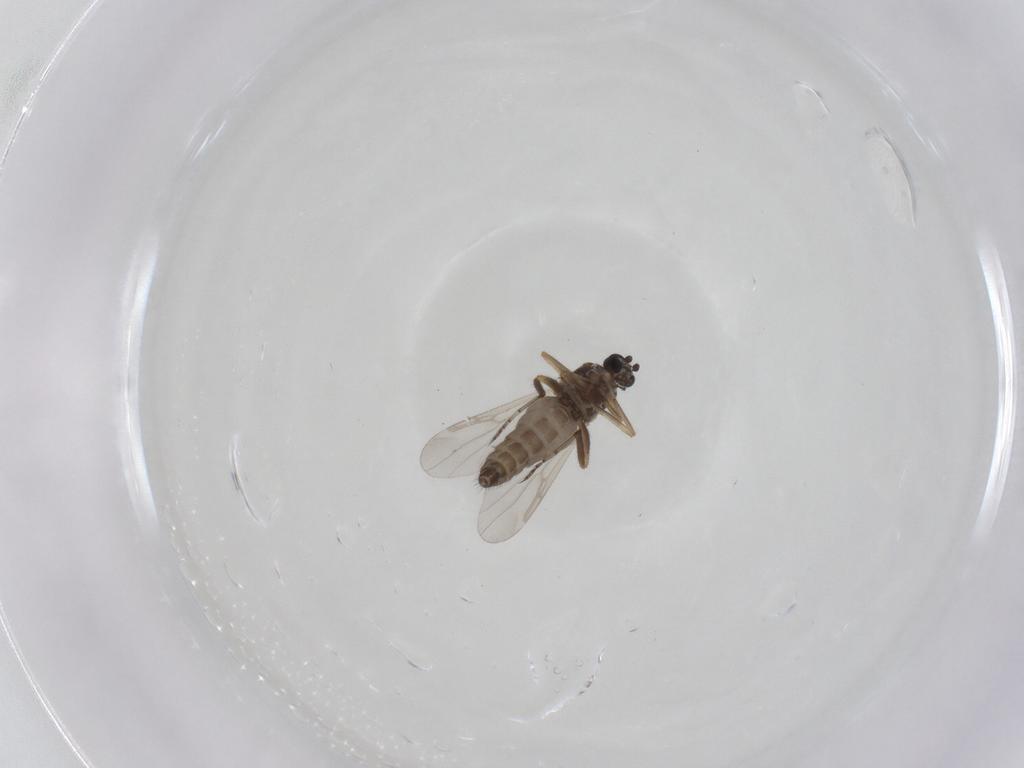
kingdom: Animalia
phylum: Arthropoda
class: Insecta
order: Diptera
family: Ceratopogonidae
